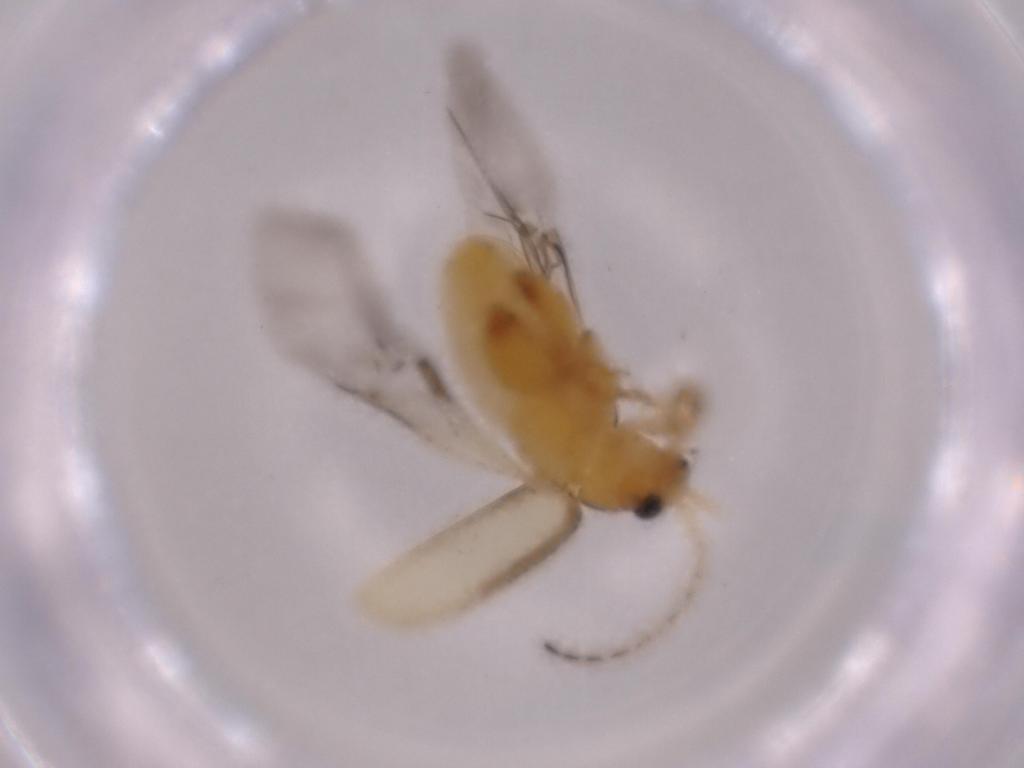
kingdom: Animalia
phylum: Arthropoda
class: Insecta
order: Coleoptera
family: Chrysomelidae
